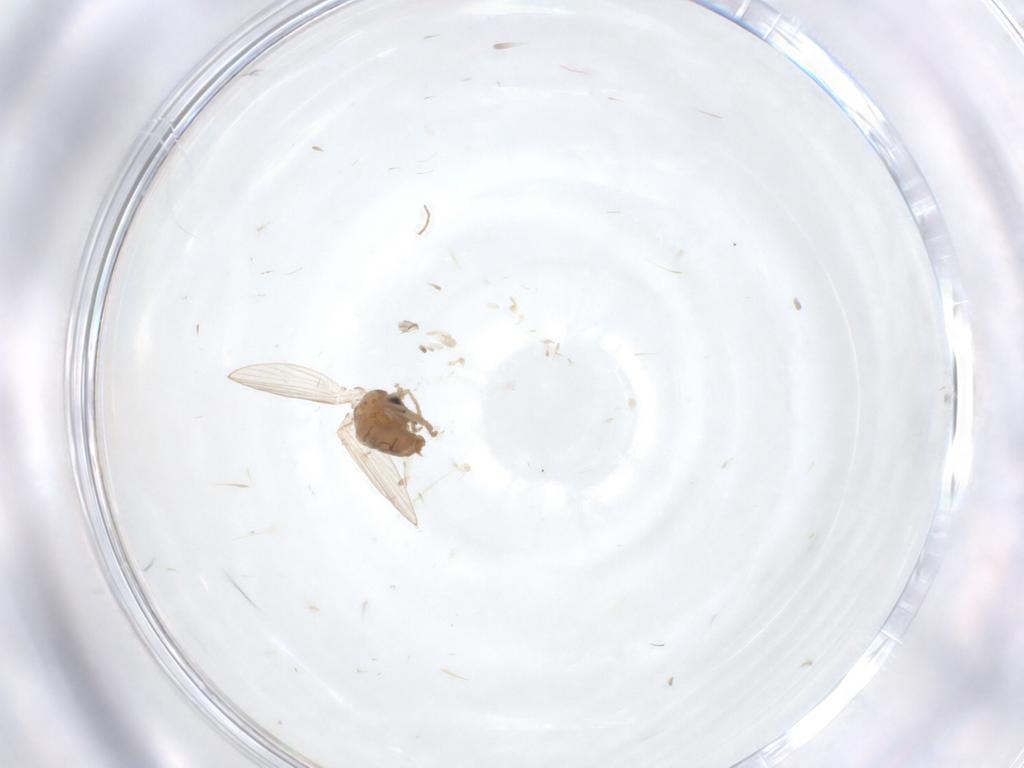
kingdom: Animalia
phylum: Arthropoda
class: Insecta
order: Diptera
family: Psychodidae
